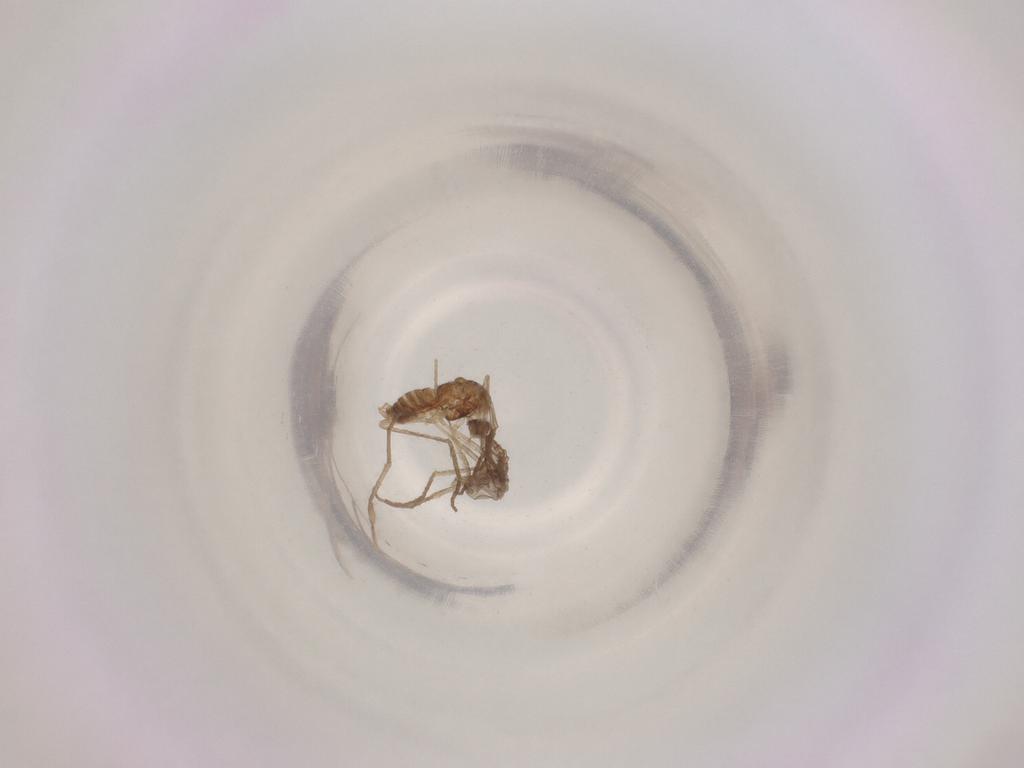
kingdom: Animalia
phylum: Arthropoda
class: Insecta
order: Diptera
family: Cecidomyiidae
